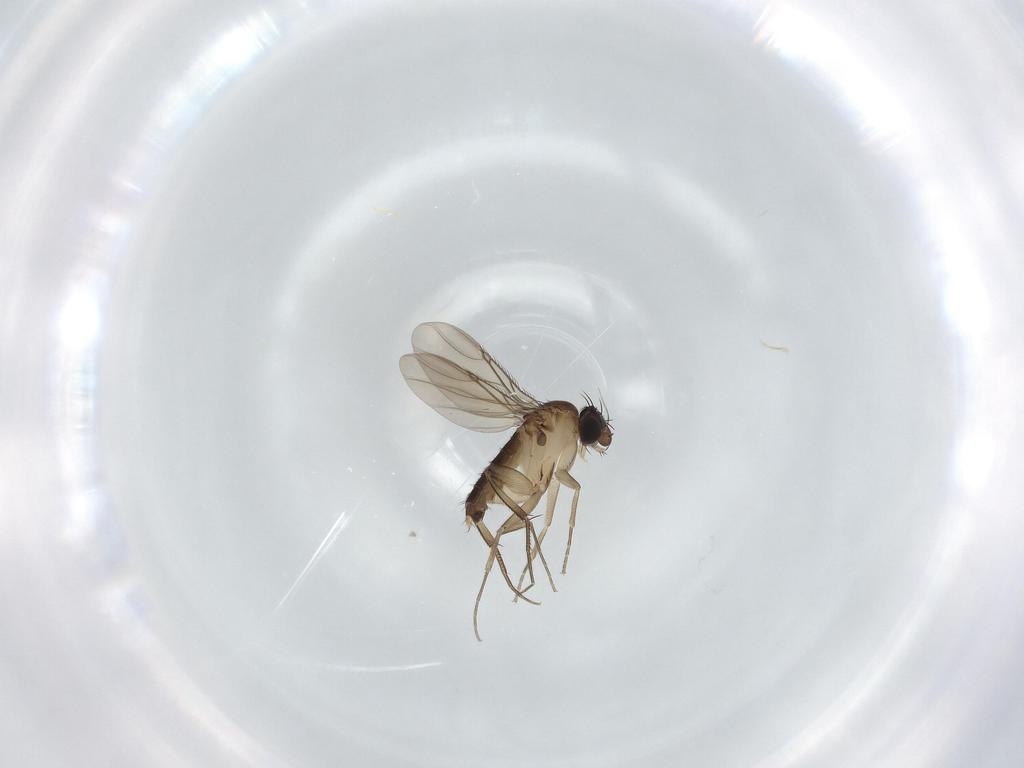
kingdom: Animalia
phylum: Arthropoda
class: Insecta
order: Diptera
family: Phoridae
